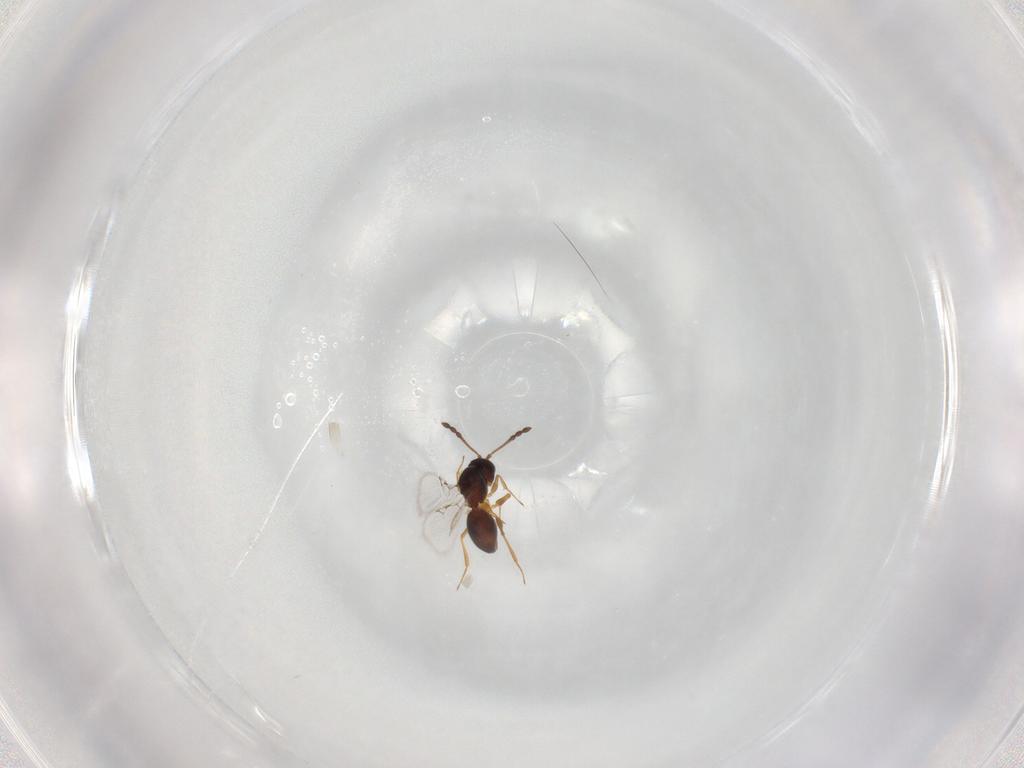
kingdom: Animalia
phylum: Arthropoda
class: Insecta
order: Hymenoptera
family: Figitidae
